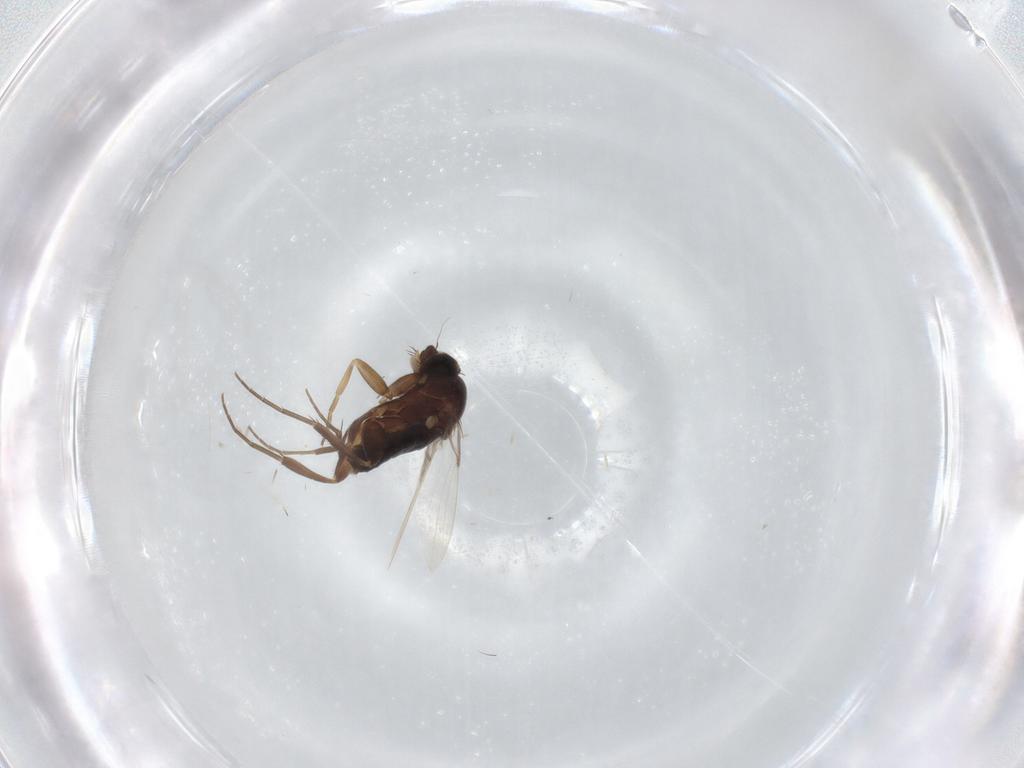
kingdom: Animalia
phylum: Arthropoda
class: Insecta
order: Diptera
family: Phoridae
